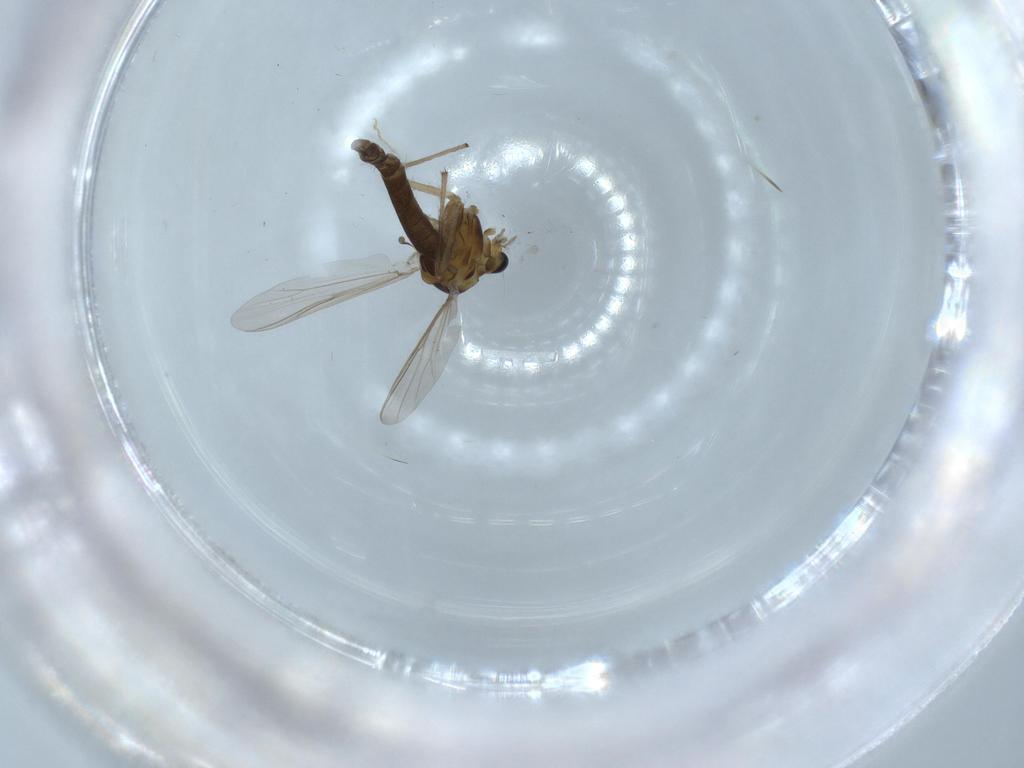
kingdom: Animalia
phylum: Arthropoda
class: Insecta
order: Diptera
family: Chironomidae
